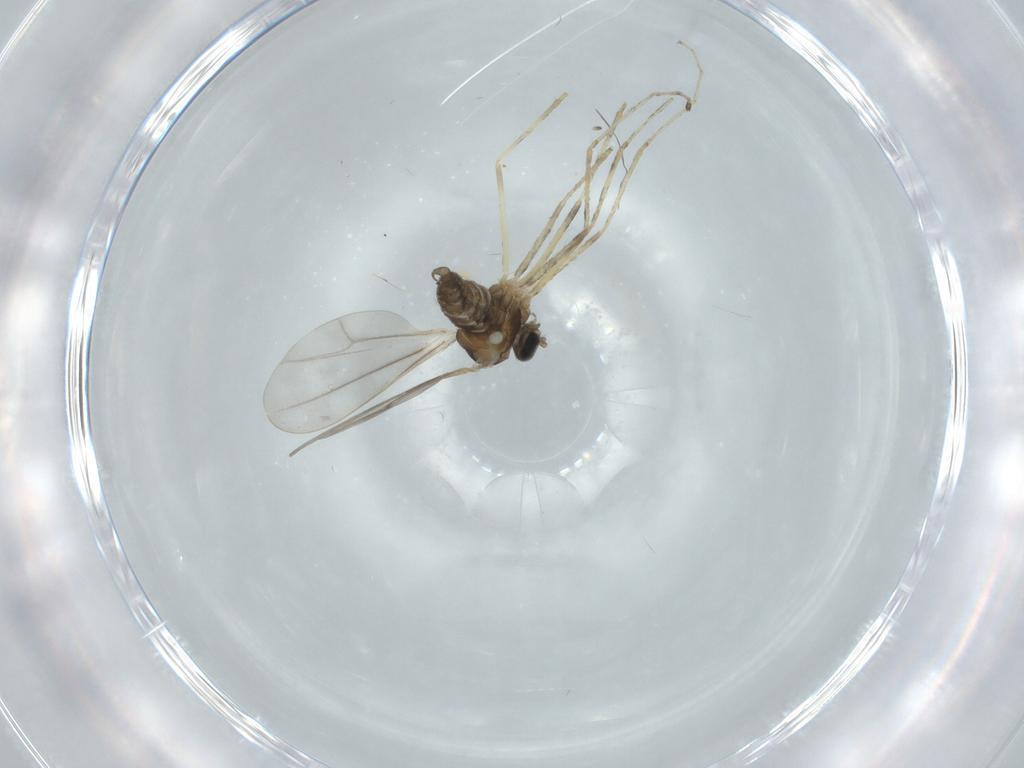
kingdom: Animalia
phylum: Arthropoda
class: Insecta
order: Diptera
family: Cecidomyiidae
